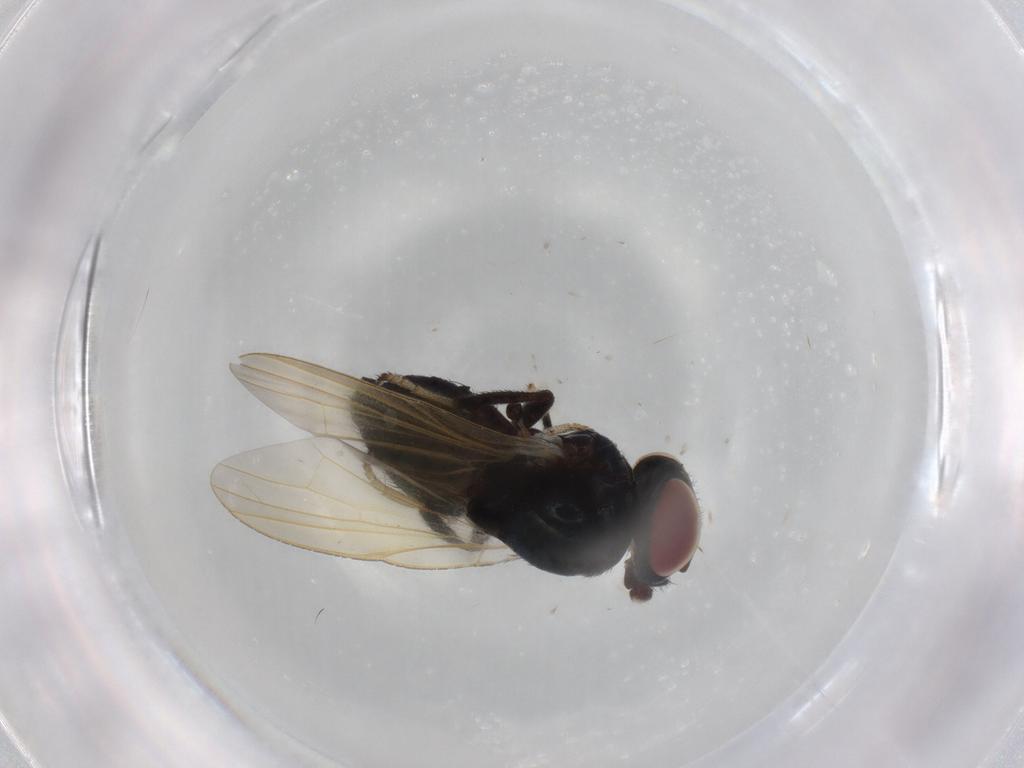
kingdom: Animalia
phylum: Arthropoda
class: Insecta
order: Diptera
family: Lonchaeidae
